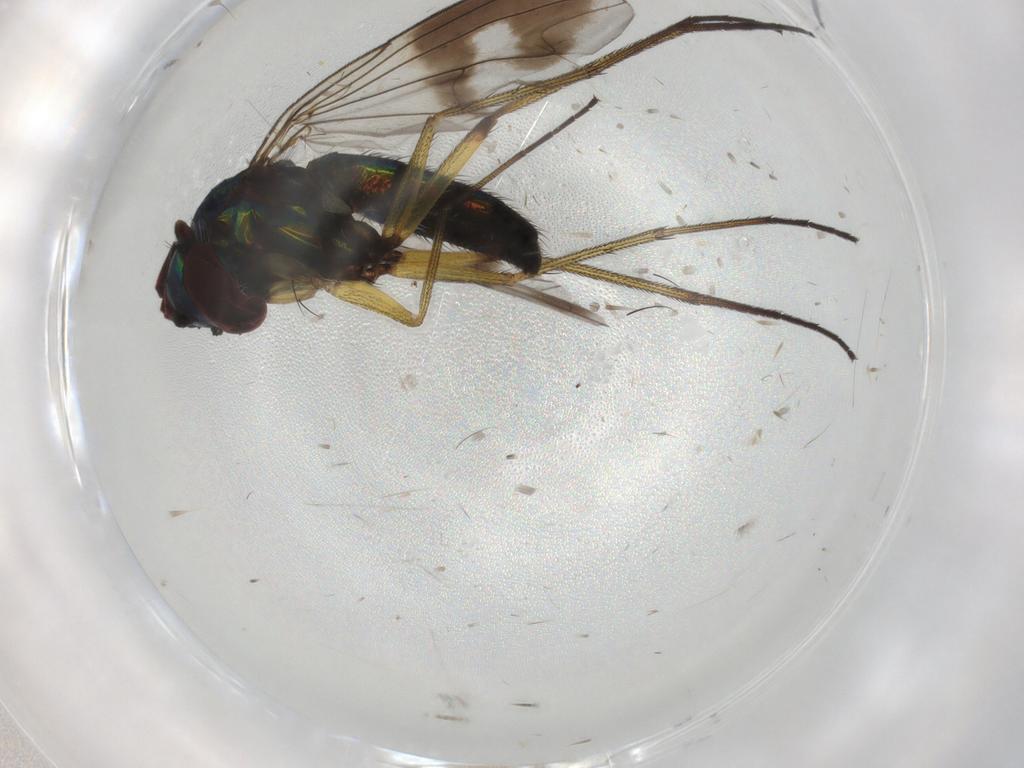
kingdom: Animalia
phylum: Arthropoda
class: Insecta
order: Diptera
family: Dolichopodidae
